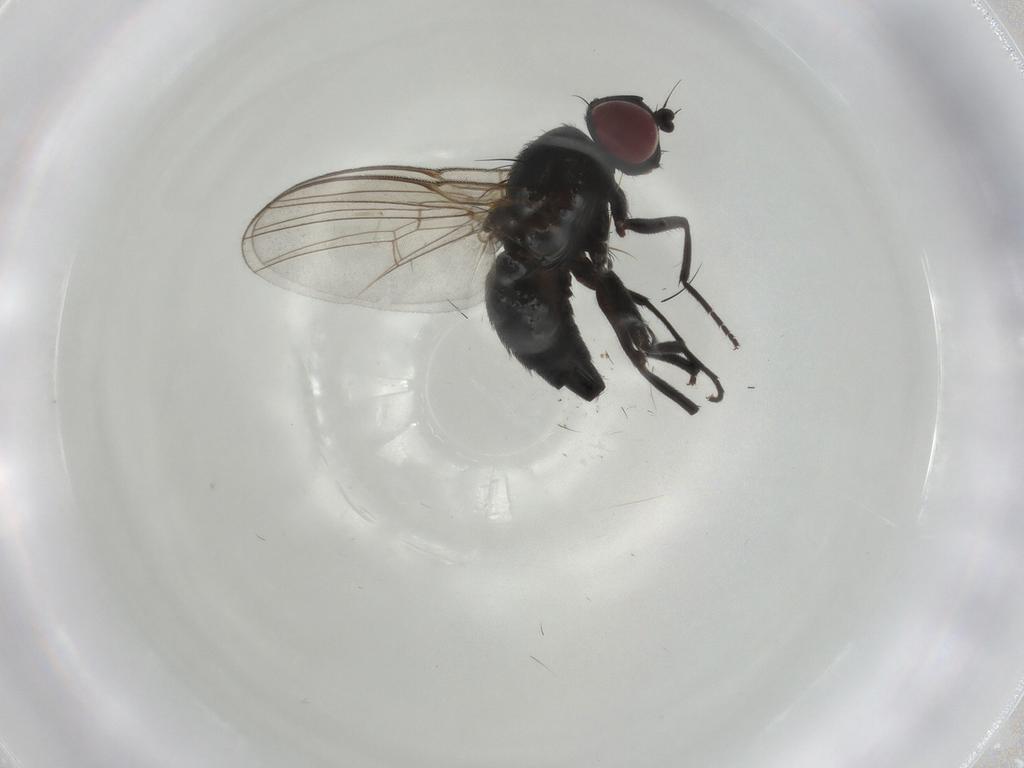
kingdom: Animalia
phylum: Arthropoda
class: Insecta
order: Diptera
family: Agromyzidae
